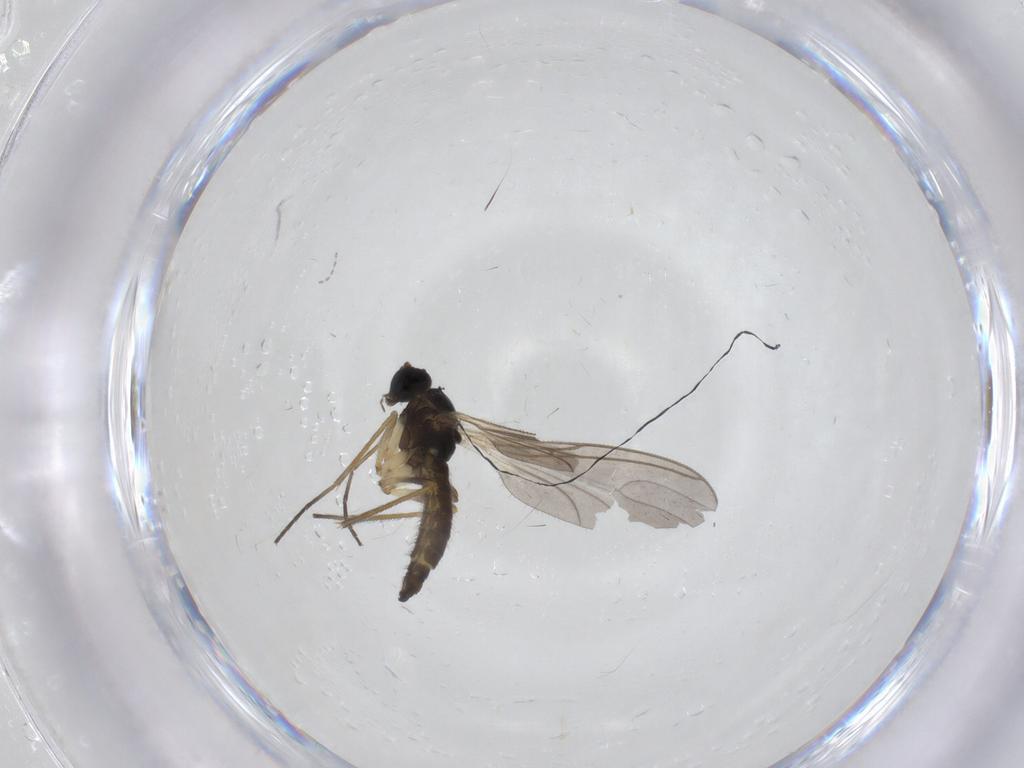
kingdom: Animalia
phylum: Arthropoda
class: Insecta
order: Diptera
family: Sciaridae
